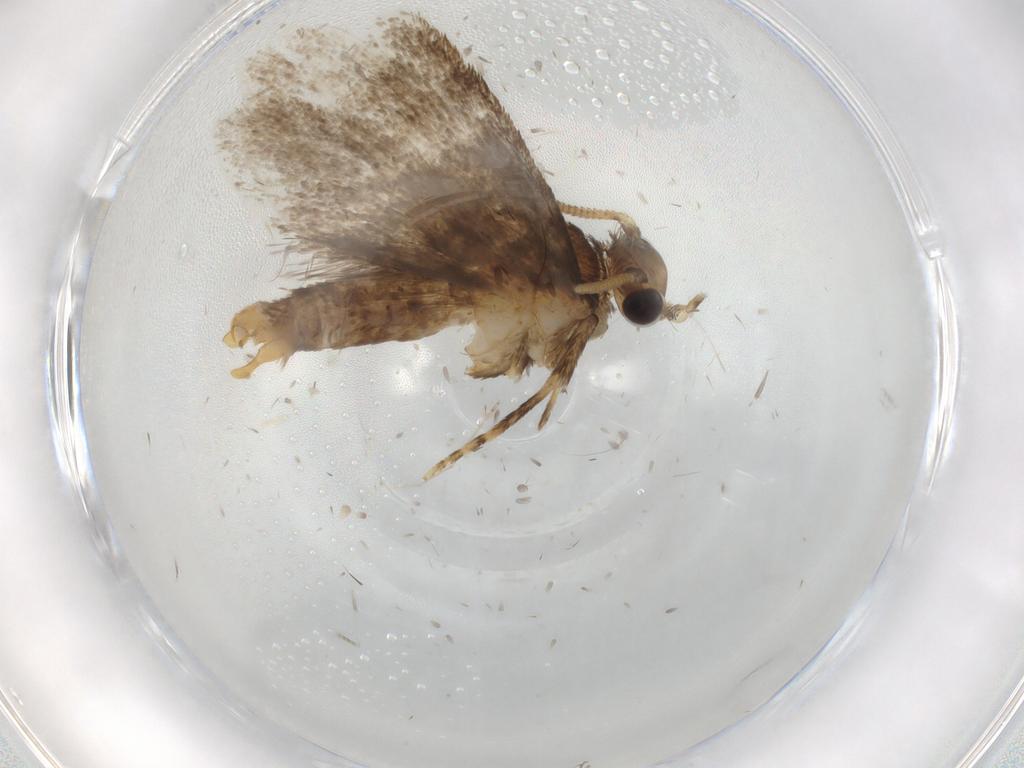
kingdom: Animalia
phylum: Arthropoda
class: Insecta
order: Lepidoptera
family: Tineidae
